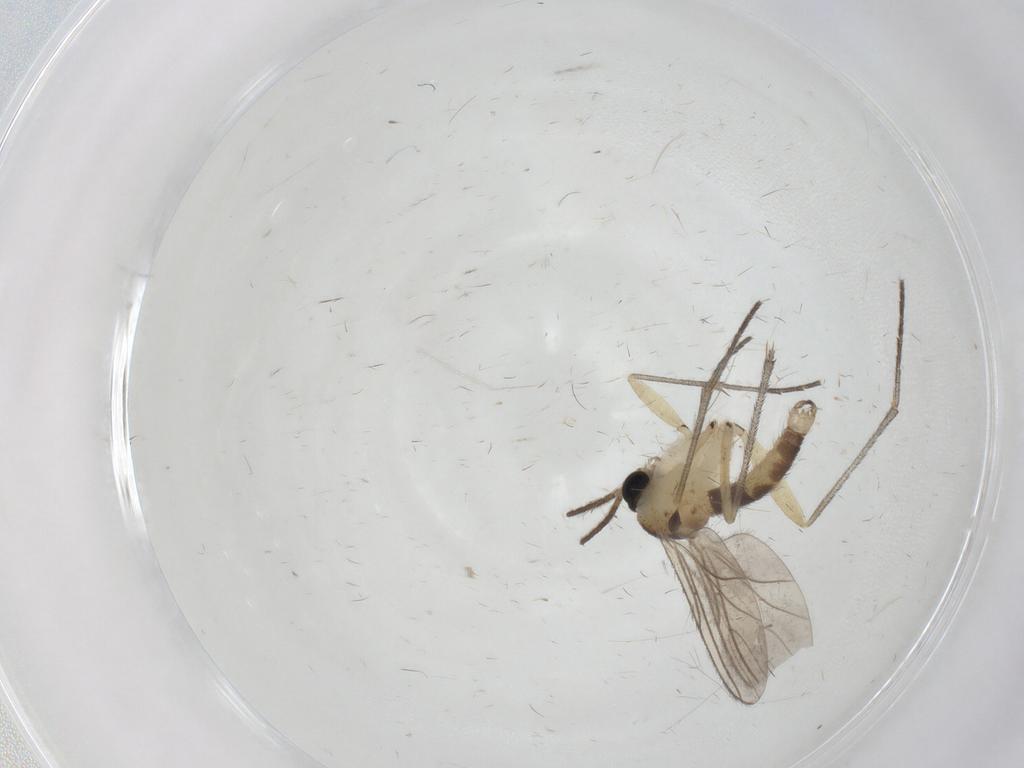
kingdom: Animalia
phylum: Arthropoda
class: Insecta
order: Diptera
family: Sciaridae
